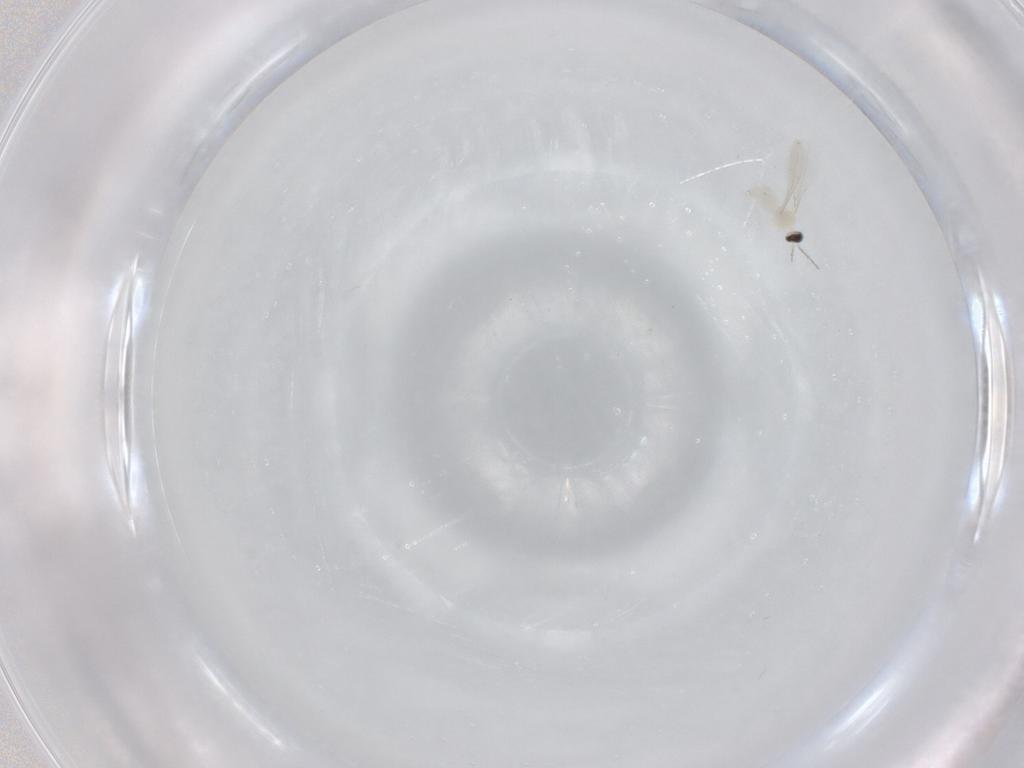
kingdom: Animalia
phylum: Arthropoda
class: Insecta
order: Diptera
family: Cecidomyiidae
